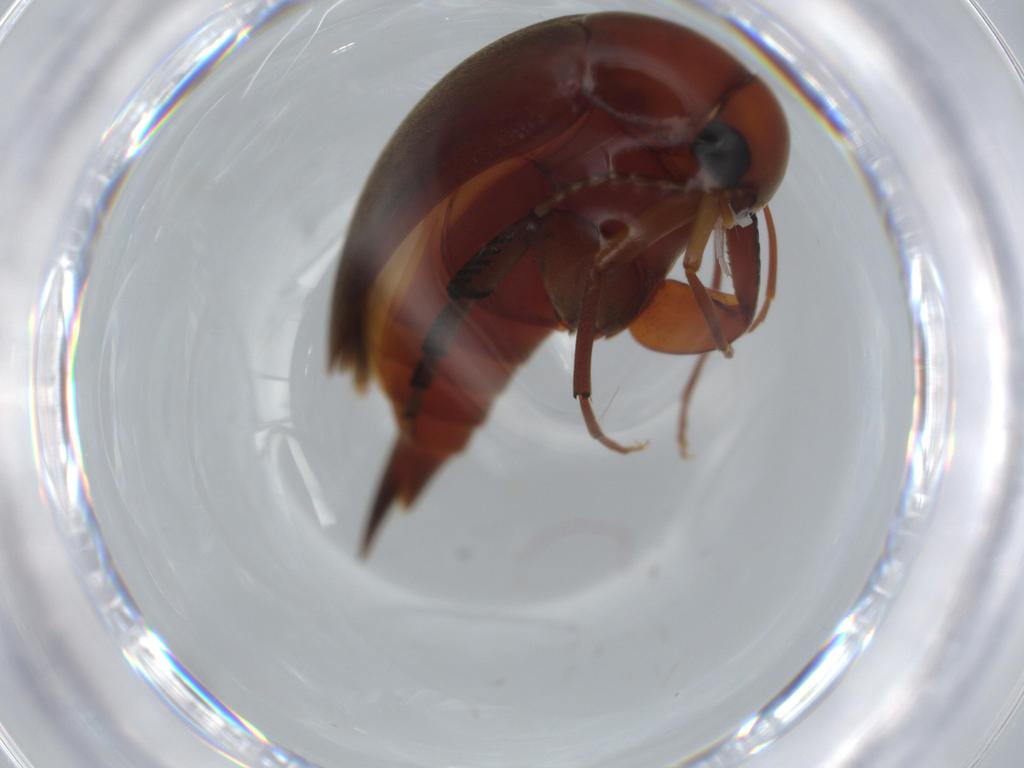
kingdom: Animalia
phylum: Arthropoda
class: Insecta
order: Coleoptera
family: Mordellidae
